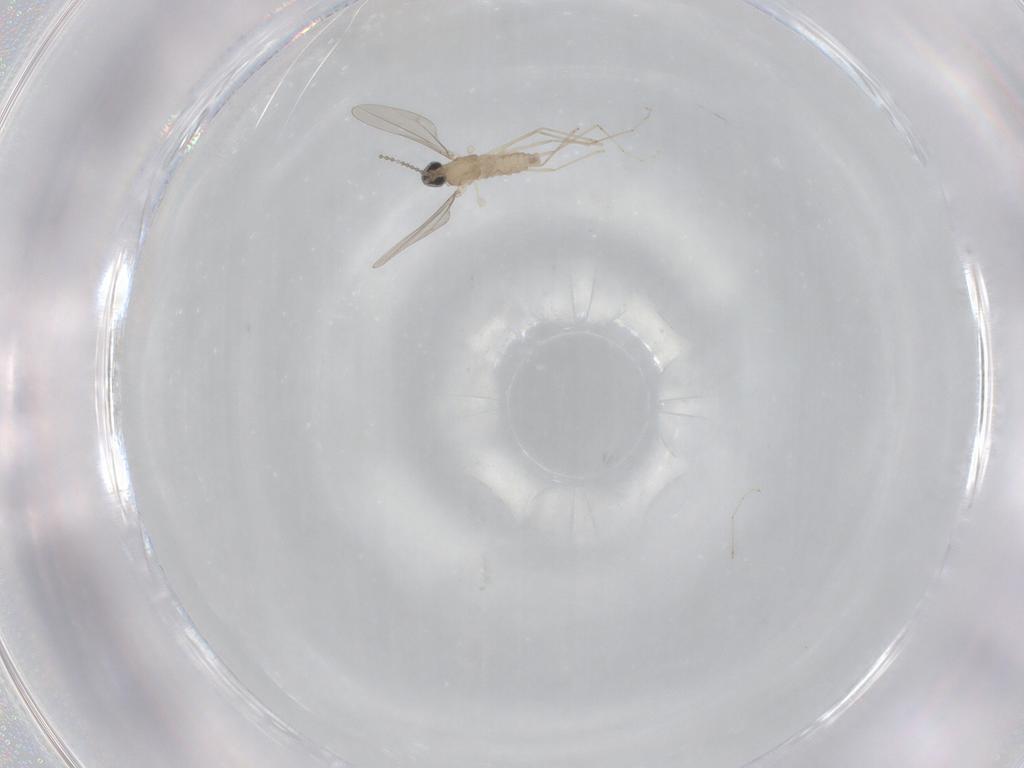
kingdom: Animalia
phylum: Arthropoda
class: Insecta
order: Diptera
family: Cecidomyiidae
